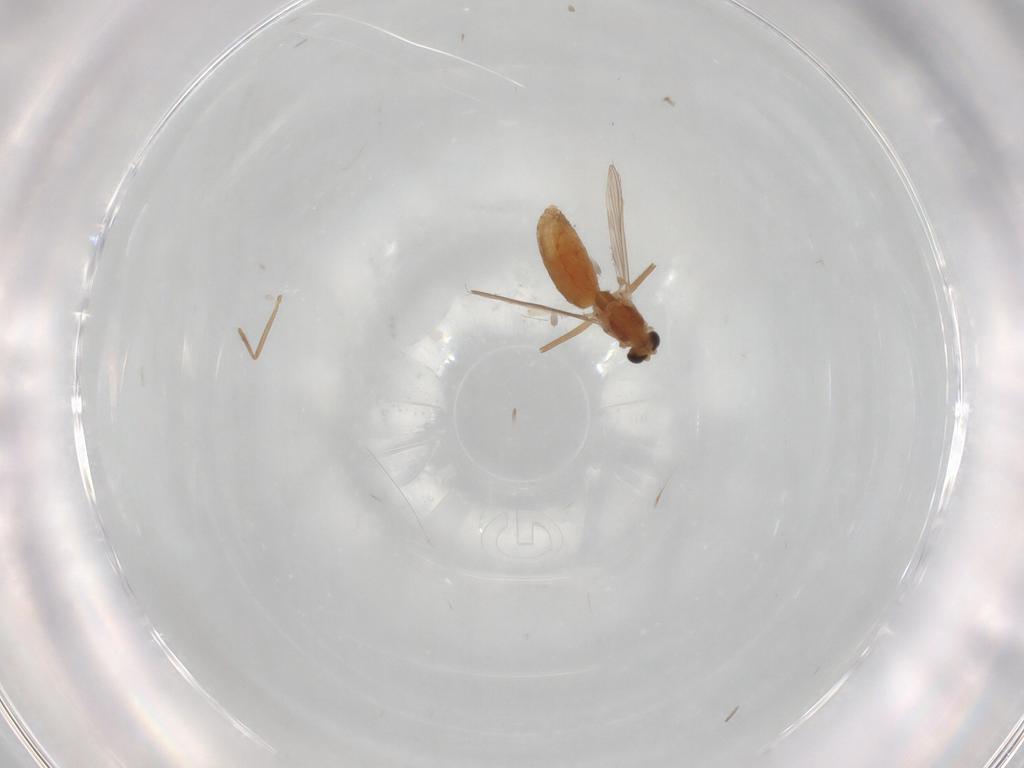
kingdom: Animalia
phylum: Arthropoda
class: Insecta
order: Diptera
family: Chironomidae
